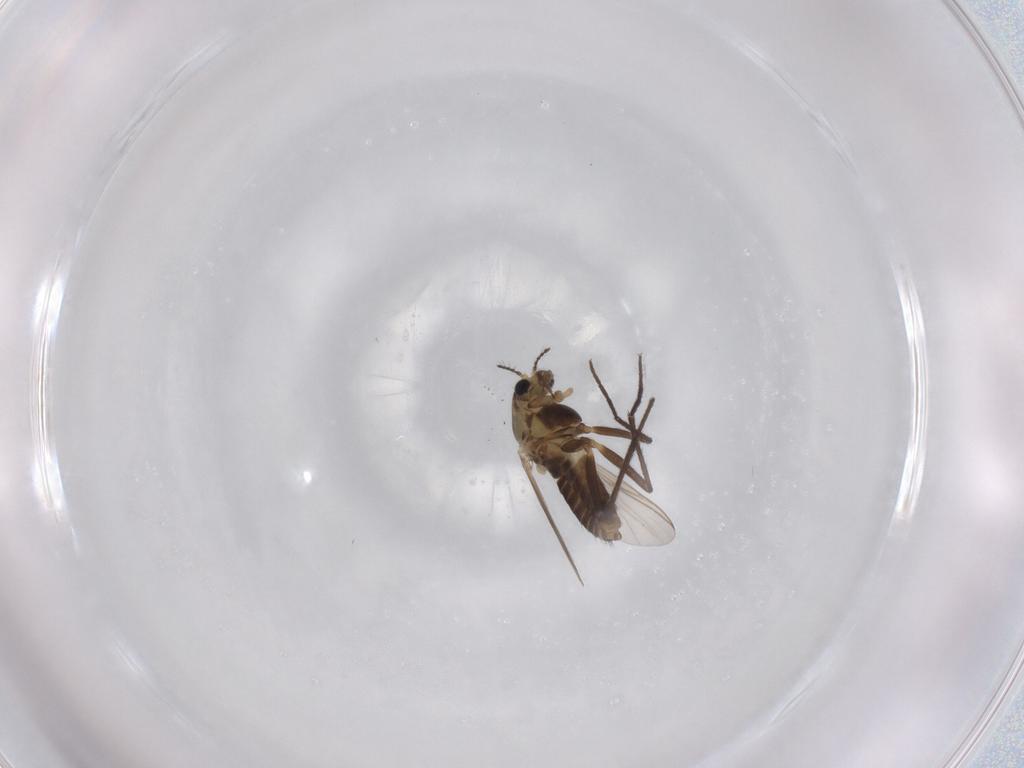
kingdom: Animalia
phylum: Arthropoda
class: Insecta
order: Diptera
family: Chironomidae
